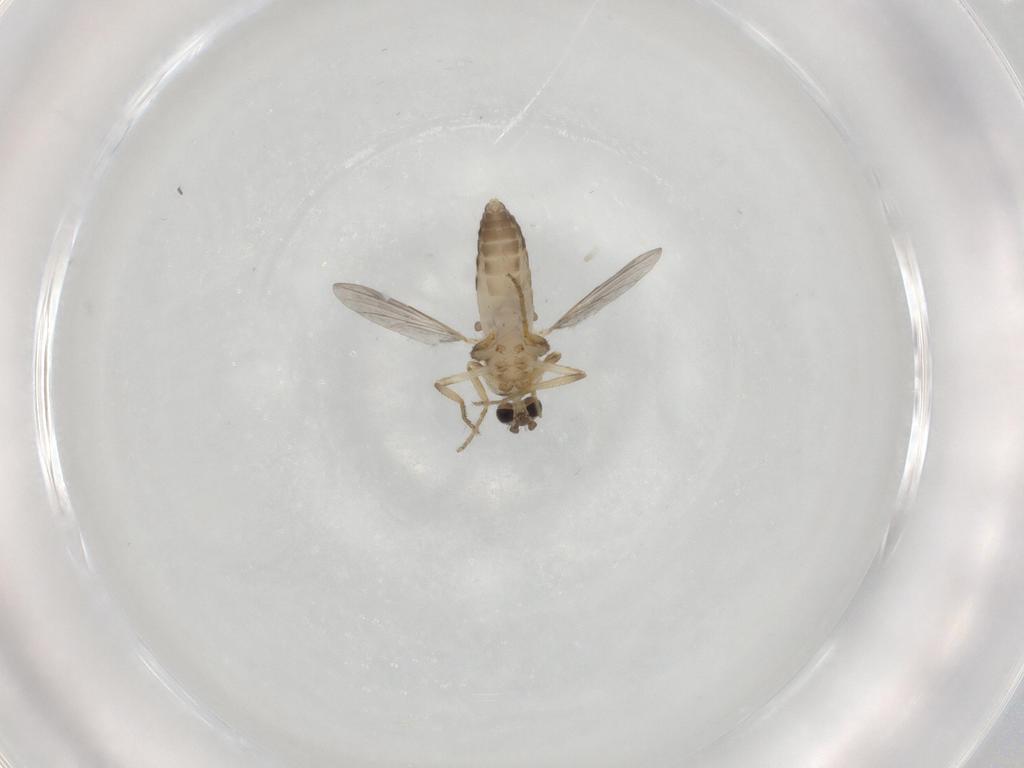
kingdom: Animalia
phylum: Arthropoda
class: Insecta
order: Diptera
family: Ceratopogonidae
